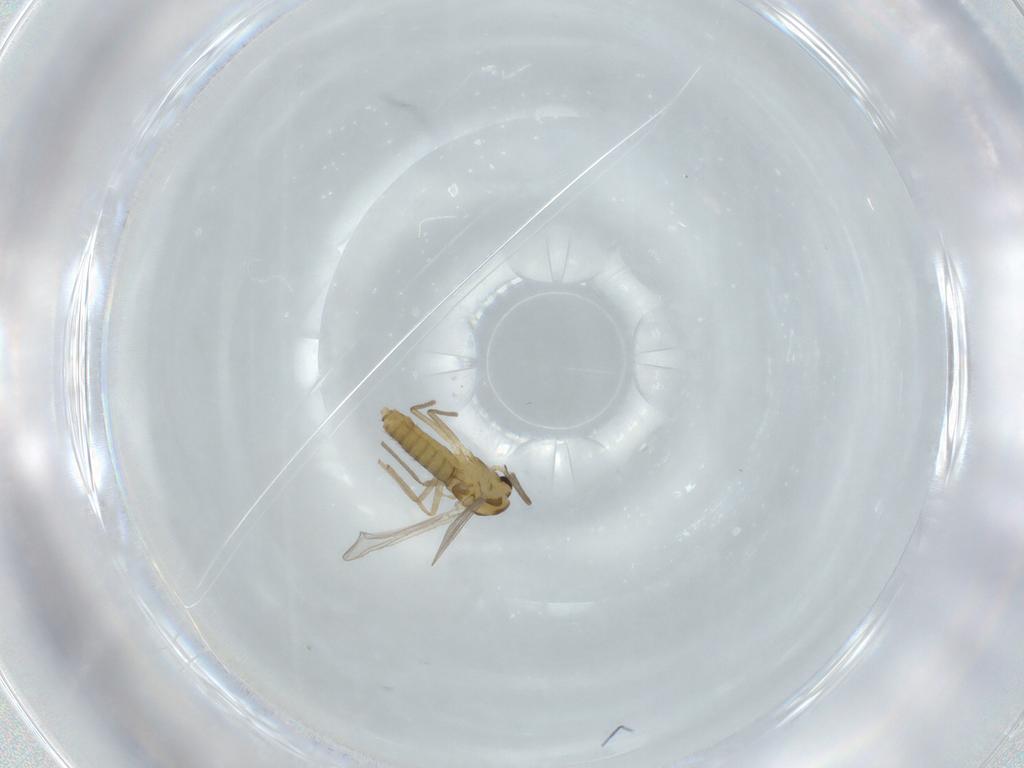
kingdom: Animalia
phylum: Arthropoda
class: Insecta
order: Diptera
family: Chironomidae
